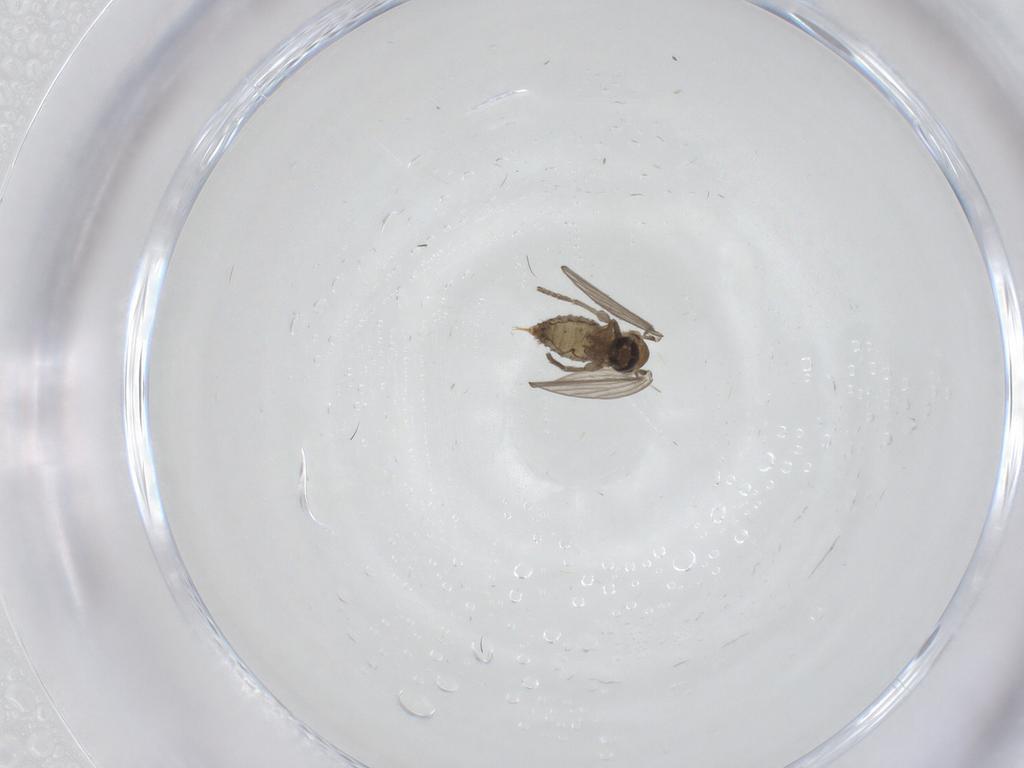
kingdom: Animalia
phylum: Arthropoda
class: Insecta
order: Diptera
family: Psychodidae
